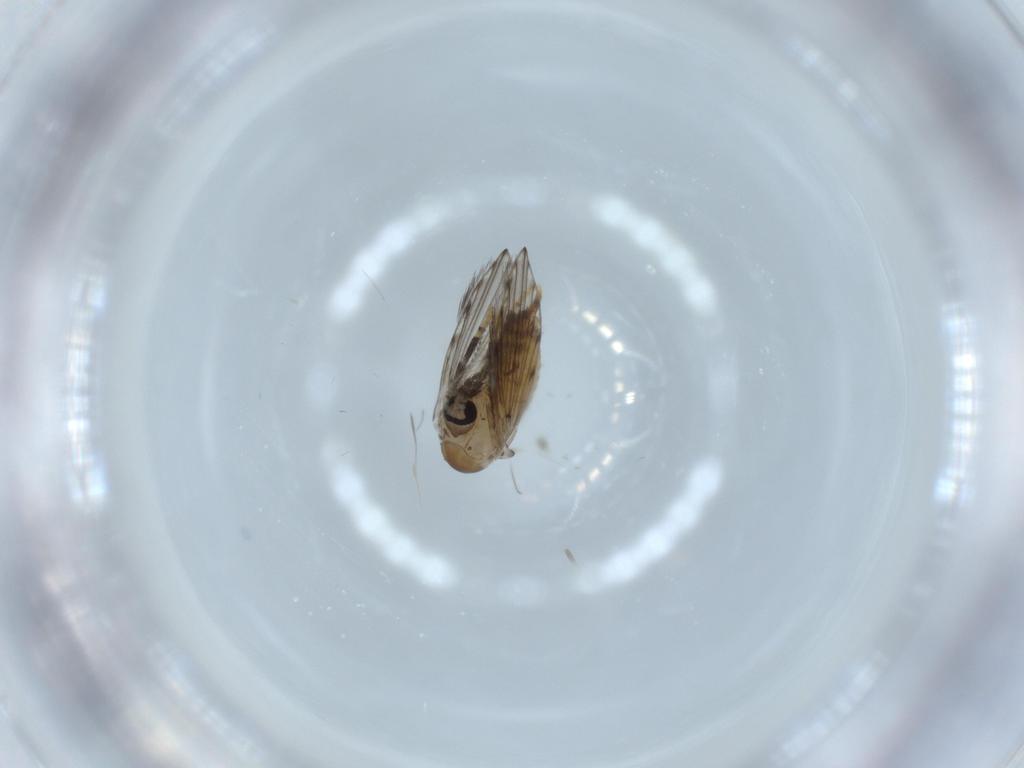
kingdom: Animalia
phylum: Arthropoda
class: Insecta
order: Diptera
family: Psychodidae
